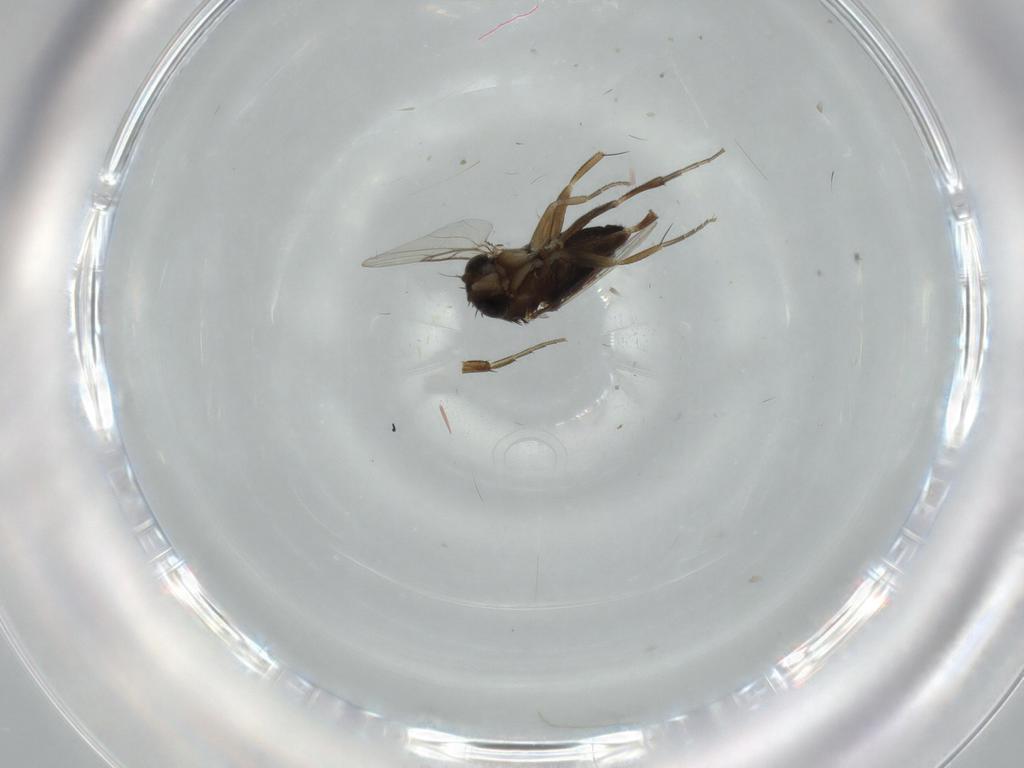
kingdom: Animalia
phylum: Arthropoda
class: Insecta
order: Diptera
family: Phoridae
